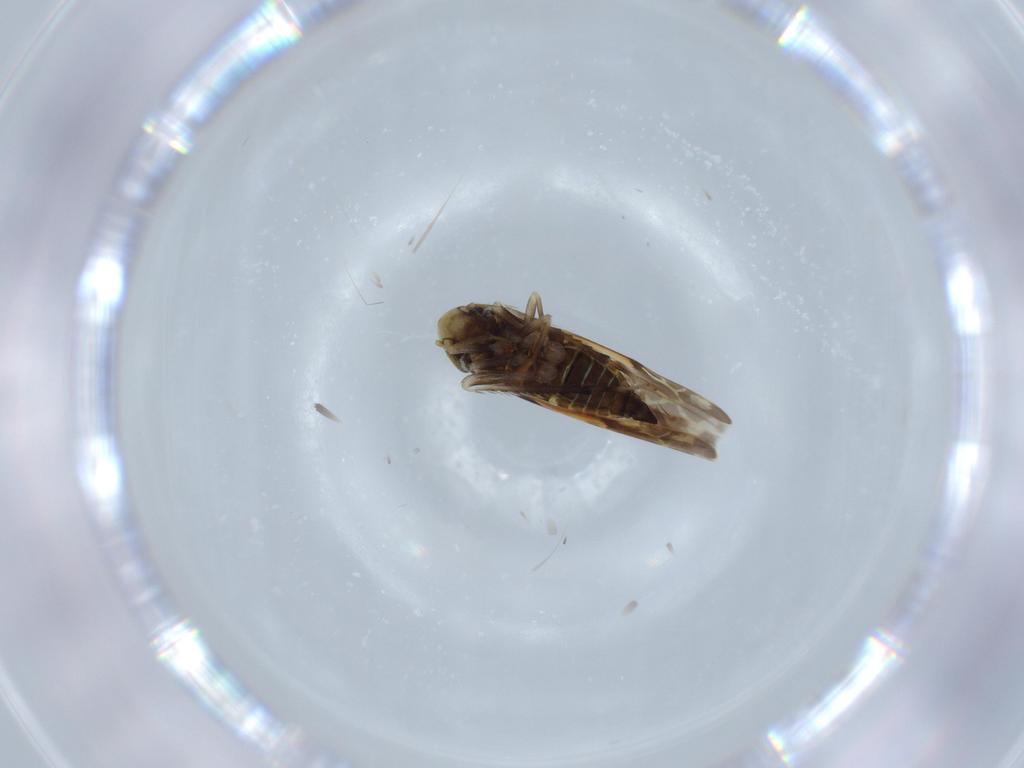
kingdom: Animalia
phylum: Arthropoda
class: Insecta
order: Hemiptera
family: Cicadellidae
